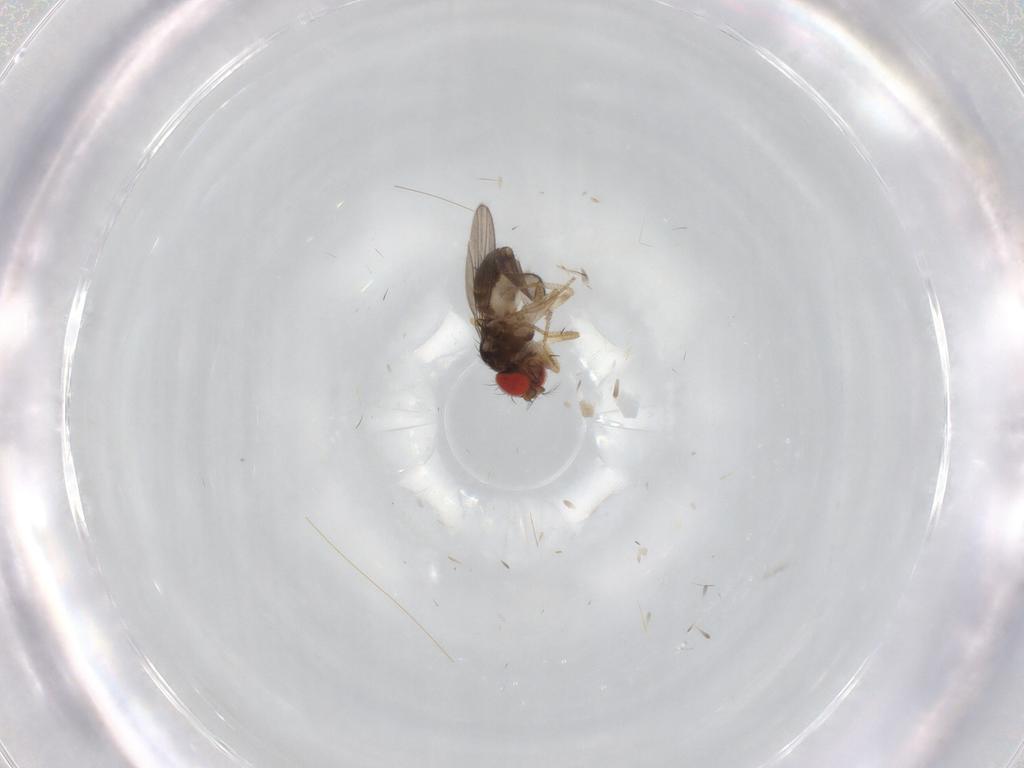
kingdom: Animalia
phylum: Arthropoda
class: Insecta
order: Diptera
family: Drosophilidae
